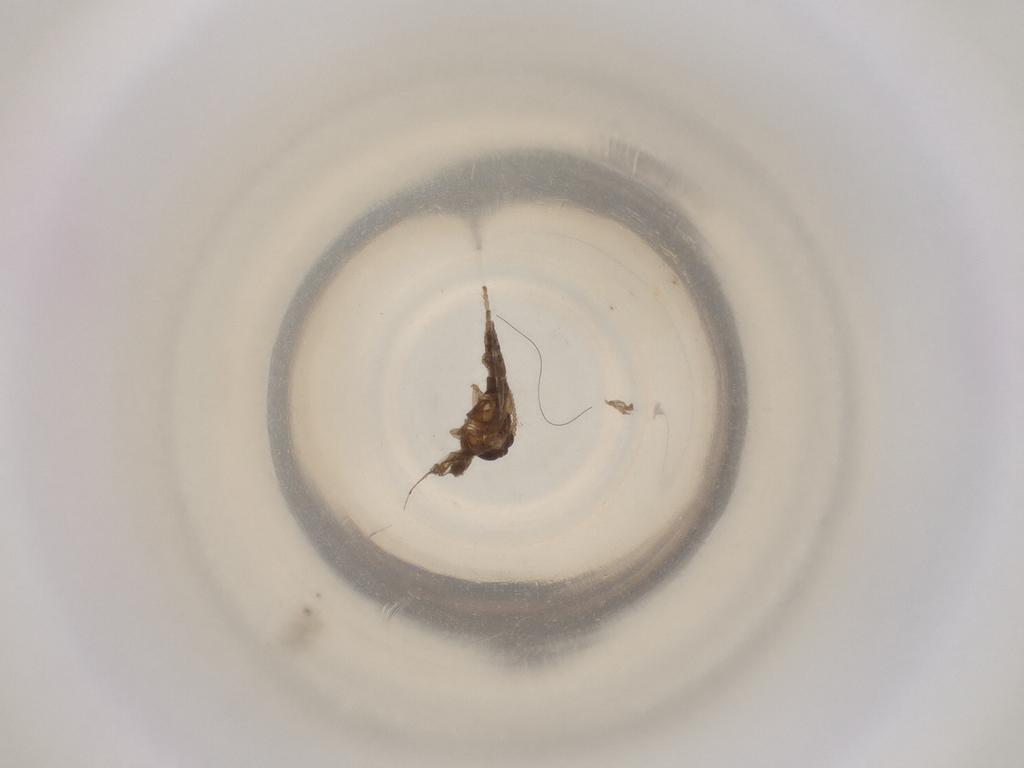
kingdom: Animalia
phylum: Arthropoda
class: Insecta
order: Diptera
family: Cecidomyiidae
